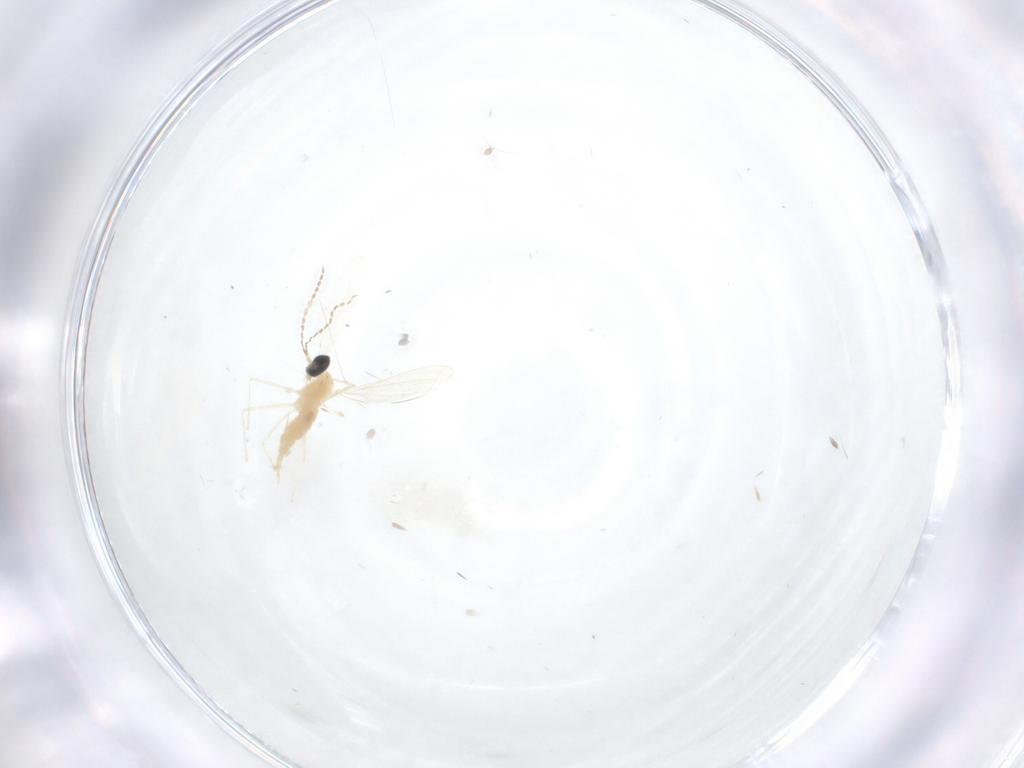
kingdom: Animalia
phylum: Arthropoda
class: Insecta
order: Diptera
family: Cecidomyiidae
